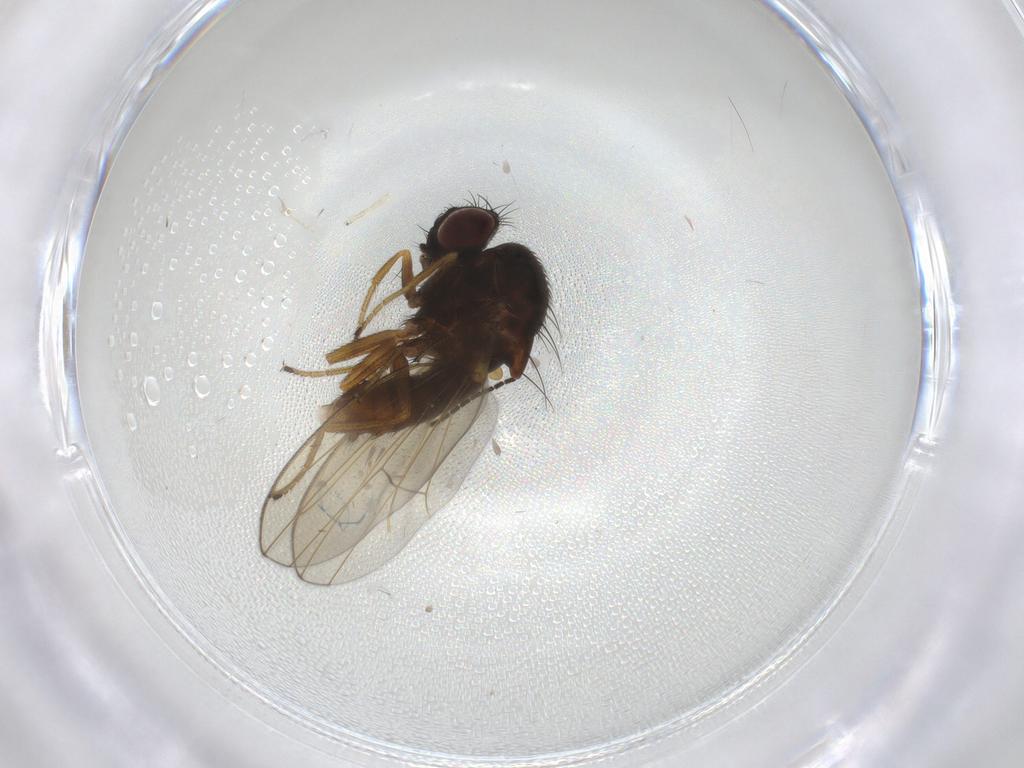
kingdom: Animalia
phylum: Arthropoda
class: Insecta
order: Diptera
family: Drosophilidae
